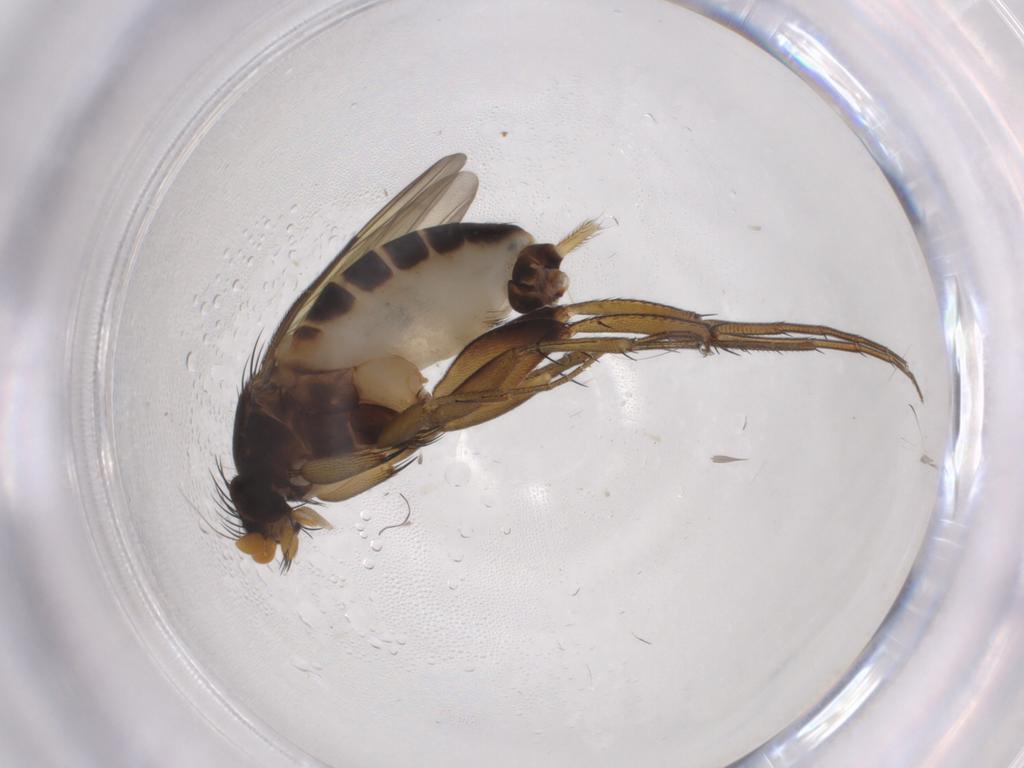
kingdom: Animalia
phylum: Arthropoda
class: Insecta
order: Diptera
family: Phoridae
